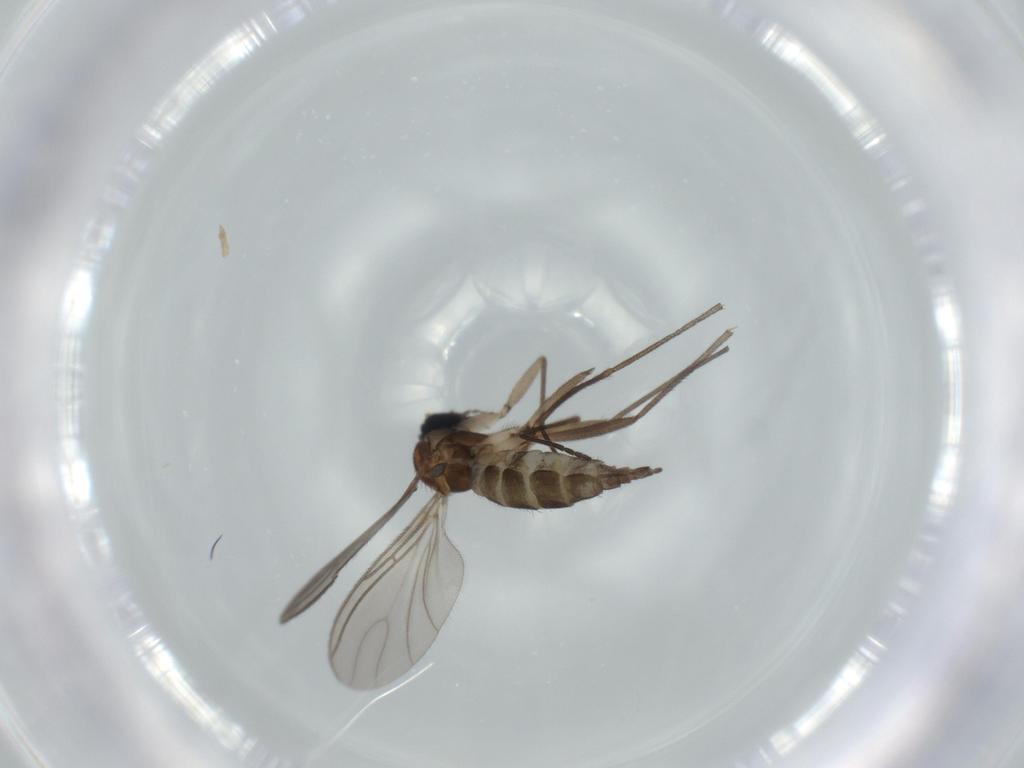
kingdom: Animalia
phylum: Arthropoda
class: Insecta
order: Diptera
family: Sciaridae
